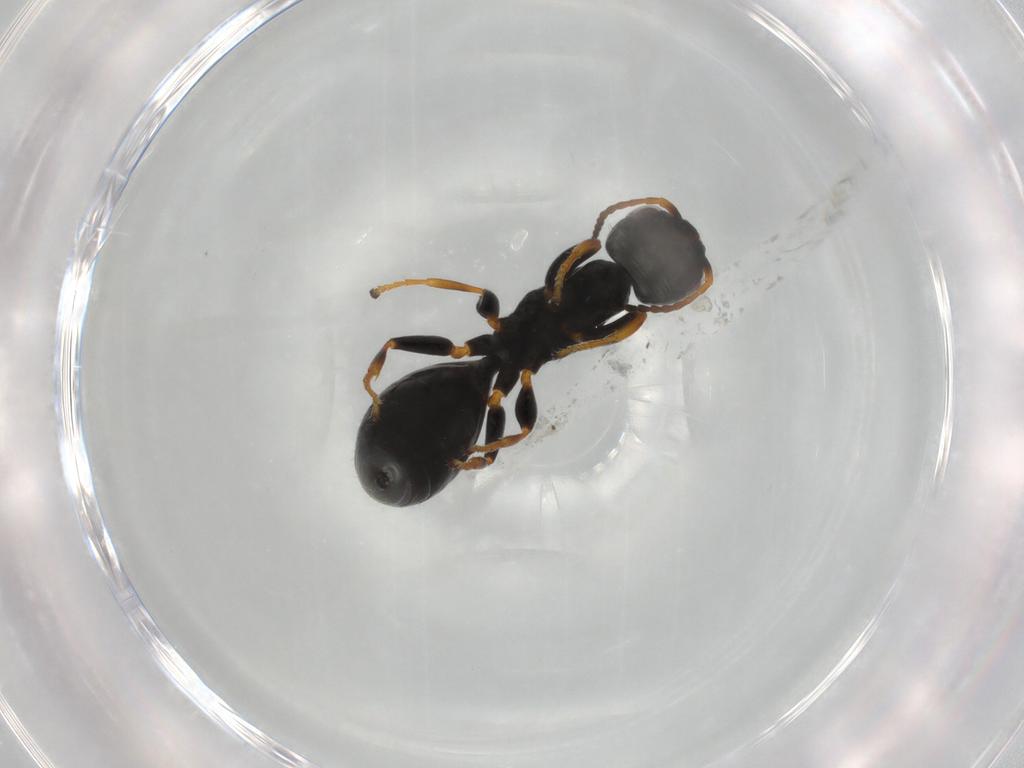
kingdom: Animalia
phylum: Arthropoda
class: Insecta
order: Hymenoptera
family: Bethylidae
